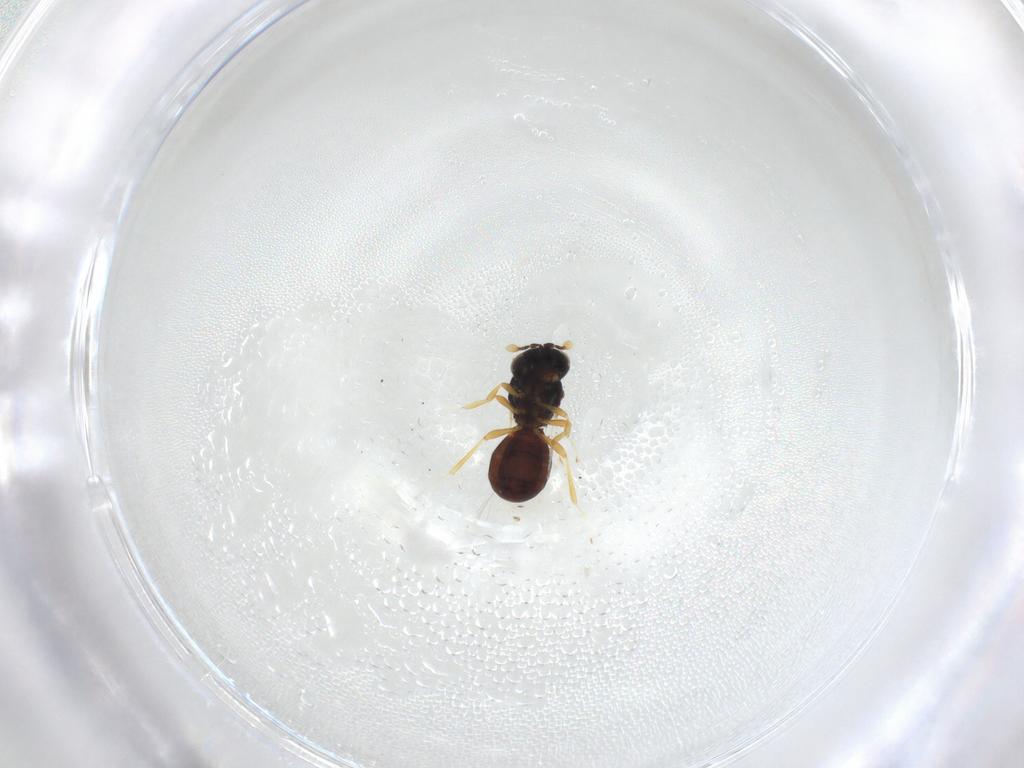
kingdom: Animalia
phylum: Arthropoda
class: Insecta
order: Hymenoptera
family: Scelionidae
